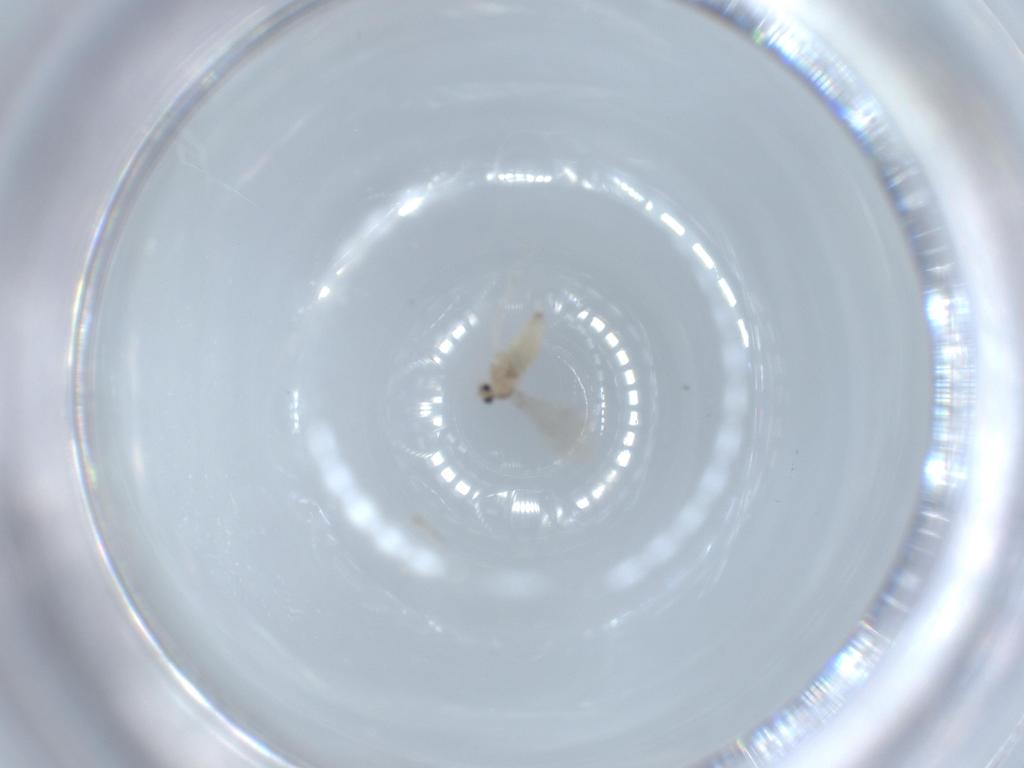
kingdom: Animalia
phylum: Arthropoda
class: Insecta
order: Diptera
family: Cecidomyiidae
